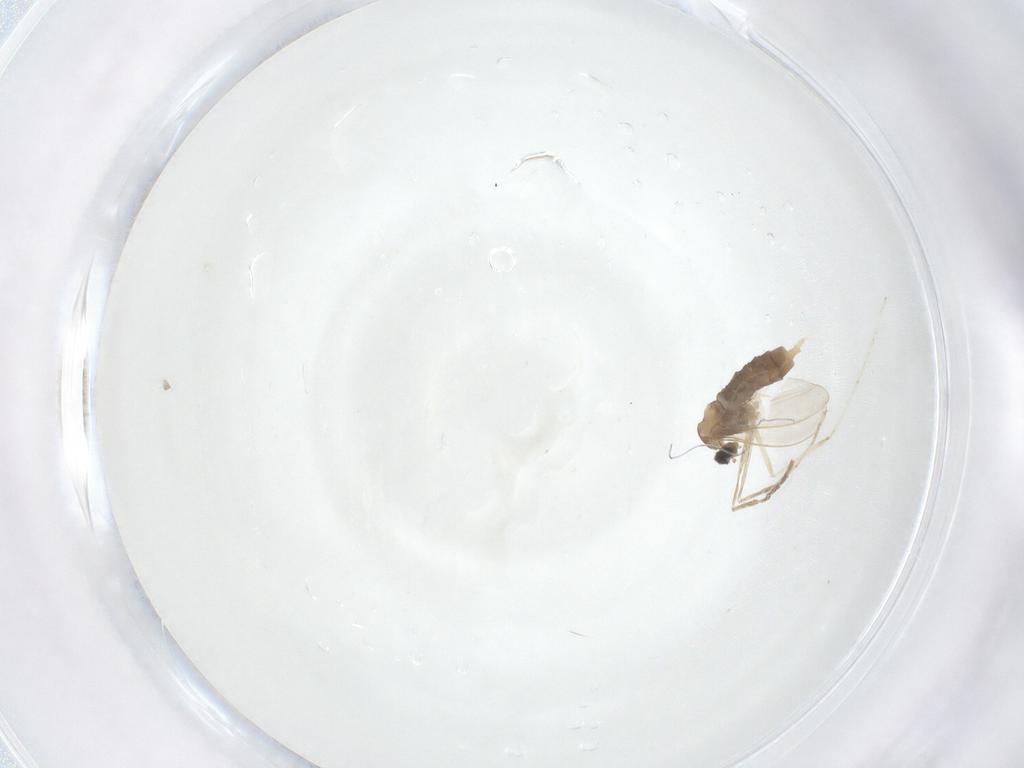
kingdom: Animalia
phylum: Arthropoda
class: Insecta
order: Diptera
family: Cecidomyiidae
